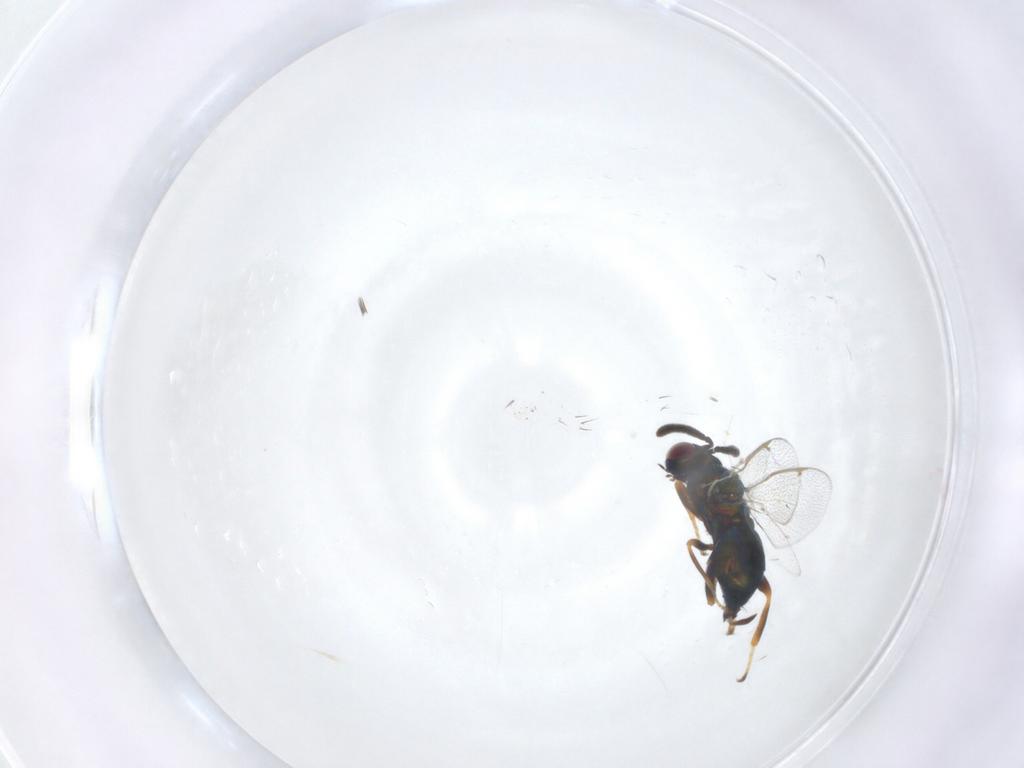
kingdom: Animalia
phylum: Arthropoda
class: Insecta
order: Hymenoptera
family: Torymidae
